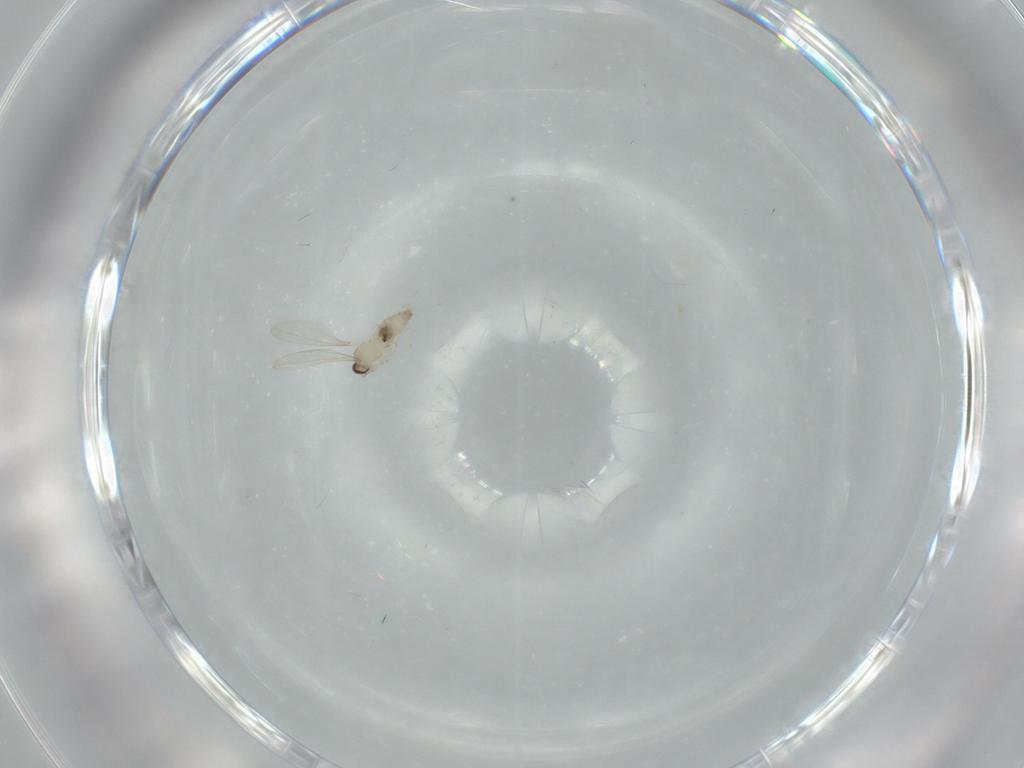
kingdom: Animalia
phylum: Arthropoda
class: Insecta
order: Diptera
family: Cecidomyiidae
